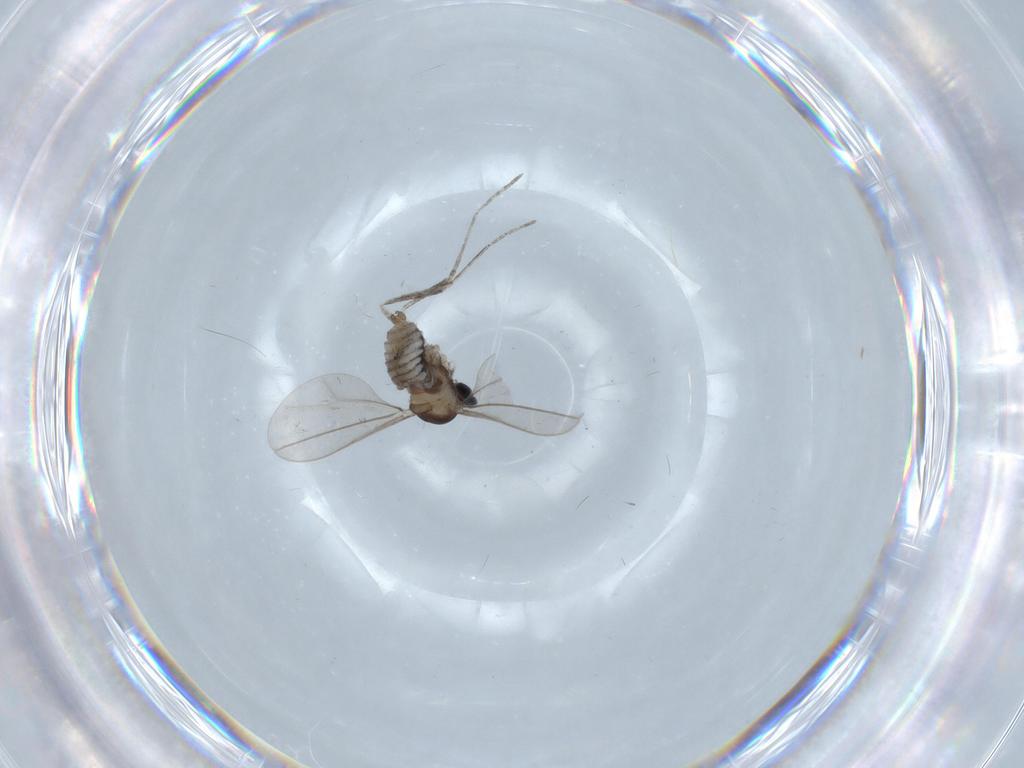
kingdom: Animalia
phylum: Arthropoda
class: Insecta
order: Diptera
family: Cecidomyiidae
